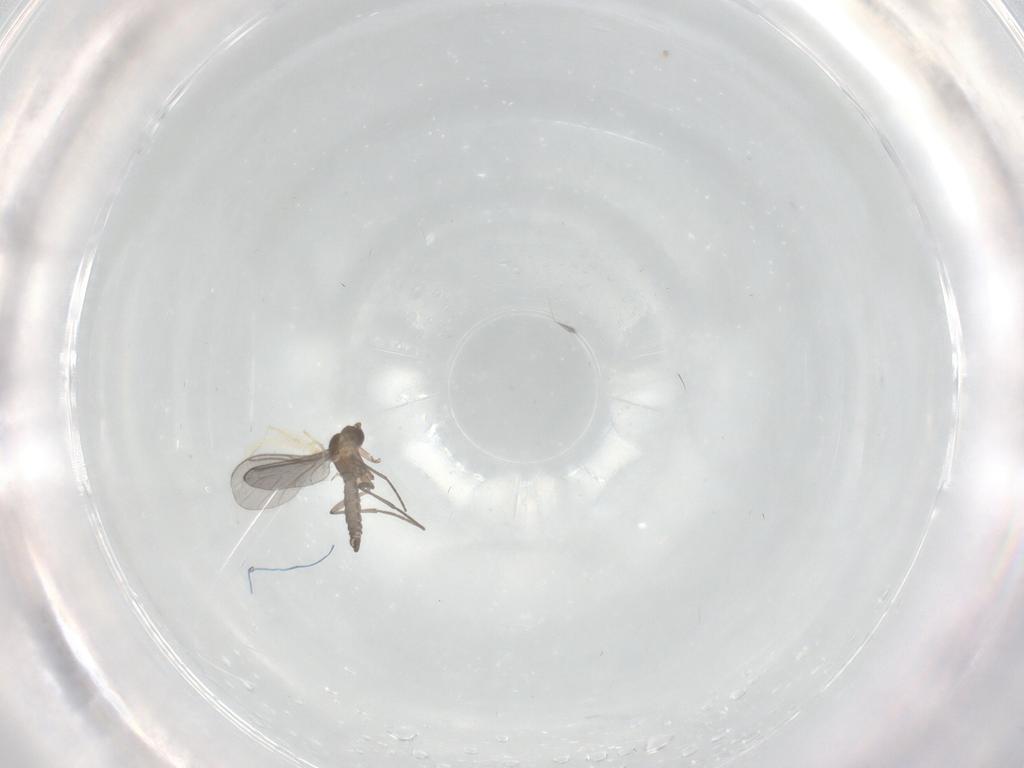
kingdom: Animalia
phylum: Arthropoda
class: Insecta
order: Diptera
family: Sciaridae
